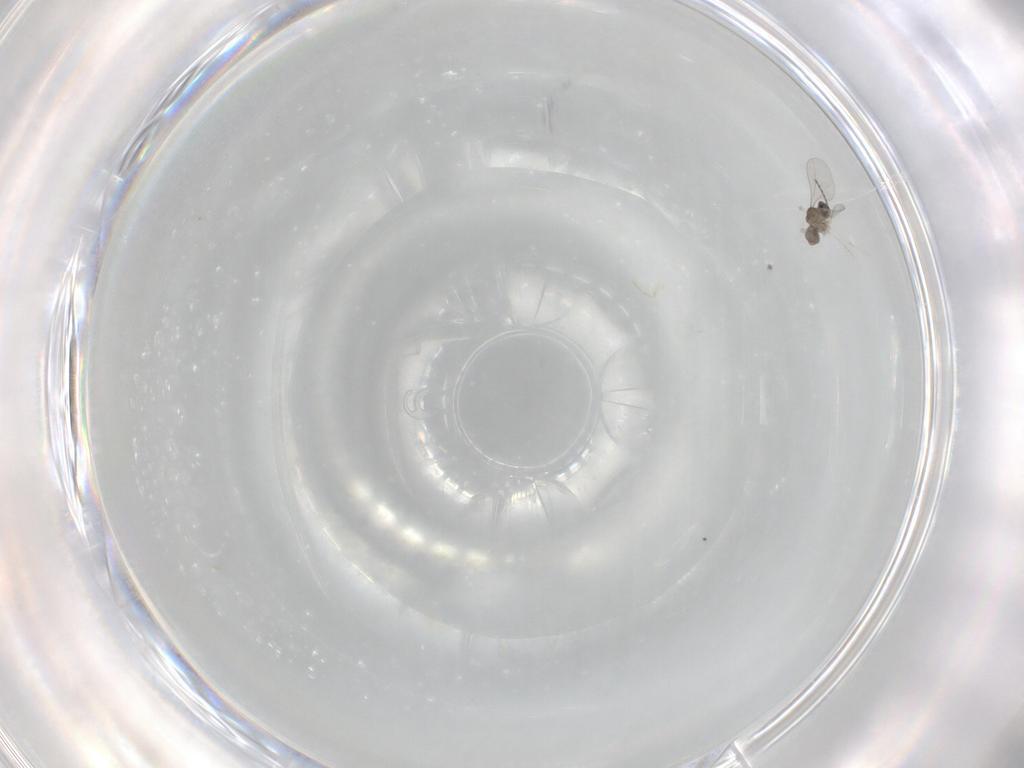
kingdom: Animalia
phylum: Arthropoda
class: Insecta
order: Diptera
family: Cecidomyiidae
